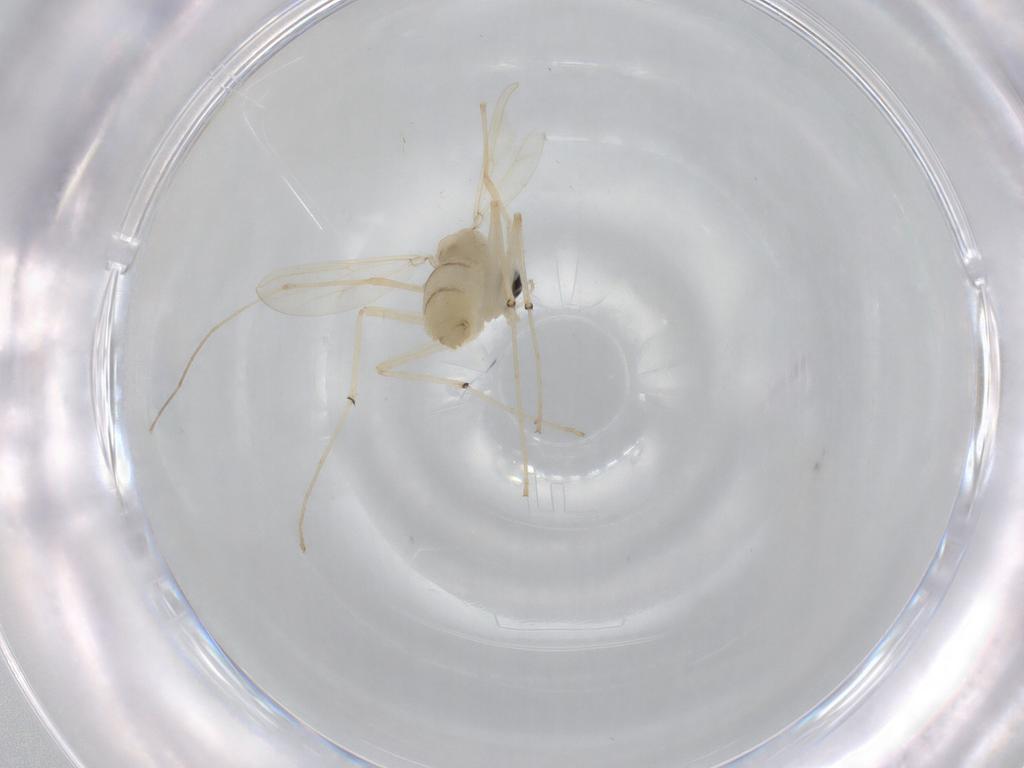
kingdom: Animalia
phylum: Arthropoda
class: Insecta
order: Diptera
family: Chironomidae
